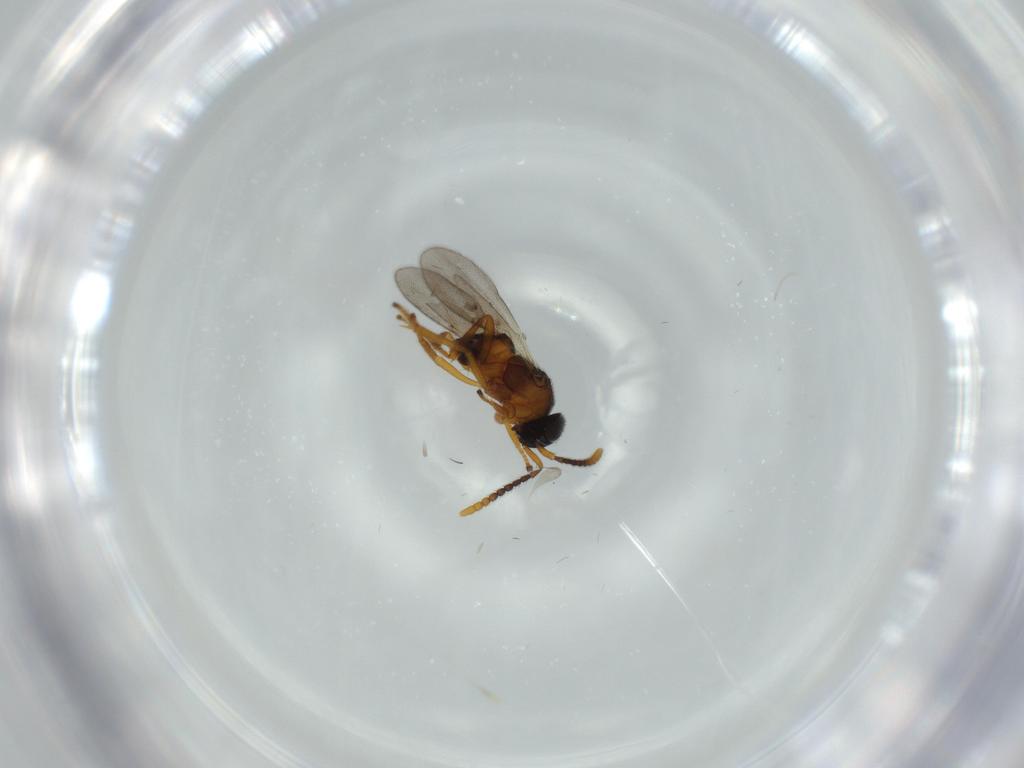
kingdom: Animalia
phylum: Arthropoda
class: Insecta
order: Hymenoptera
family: Encyrtidae
